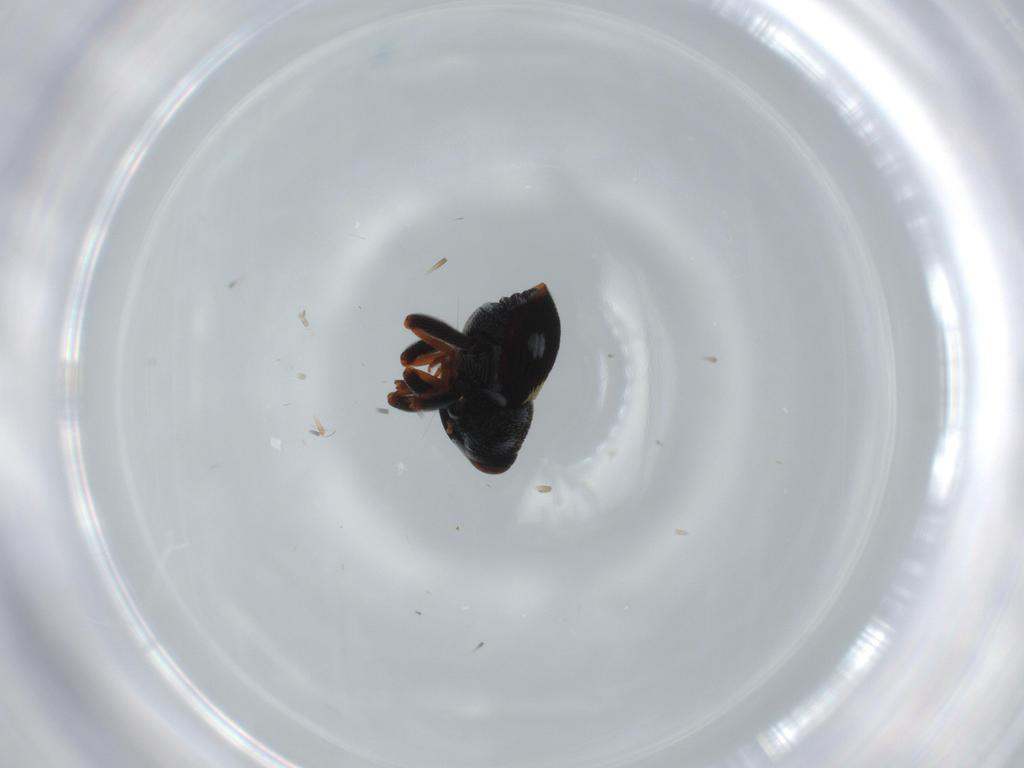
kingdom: Animalia
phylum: Arthropoda
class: Insecta
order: Coleoptera
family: Curculionidae
